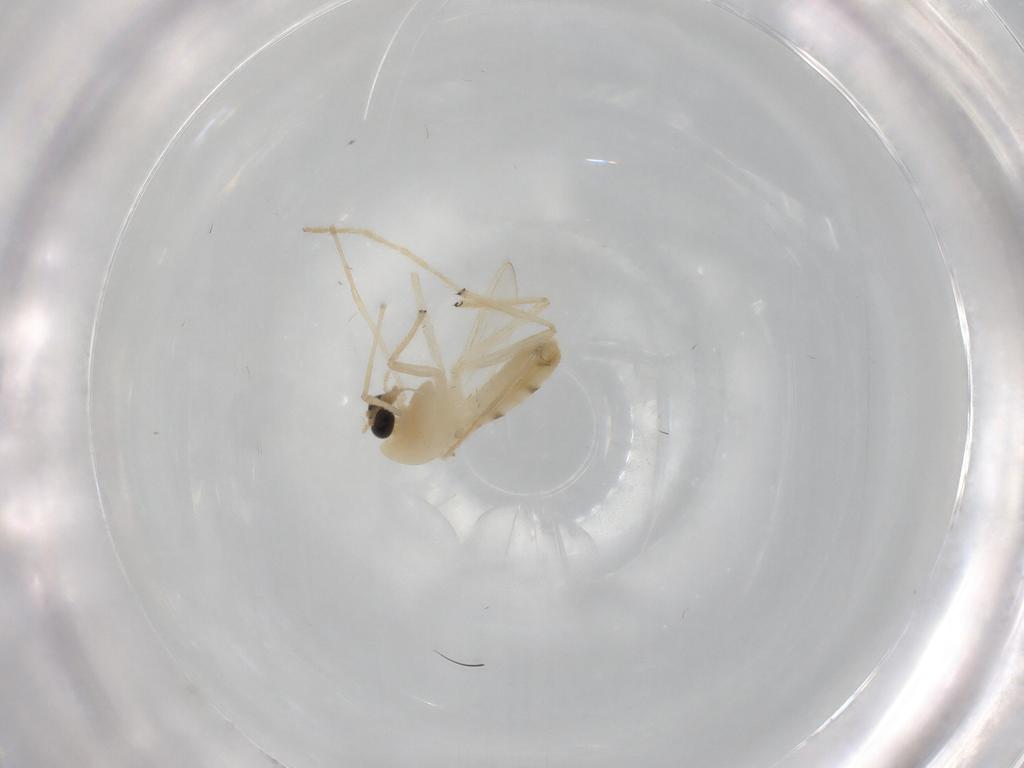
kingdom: Animalia
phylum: Arthropoda
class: Insecta
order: Diptera
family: Chironomidae
